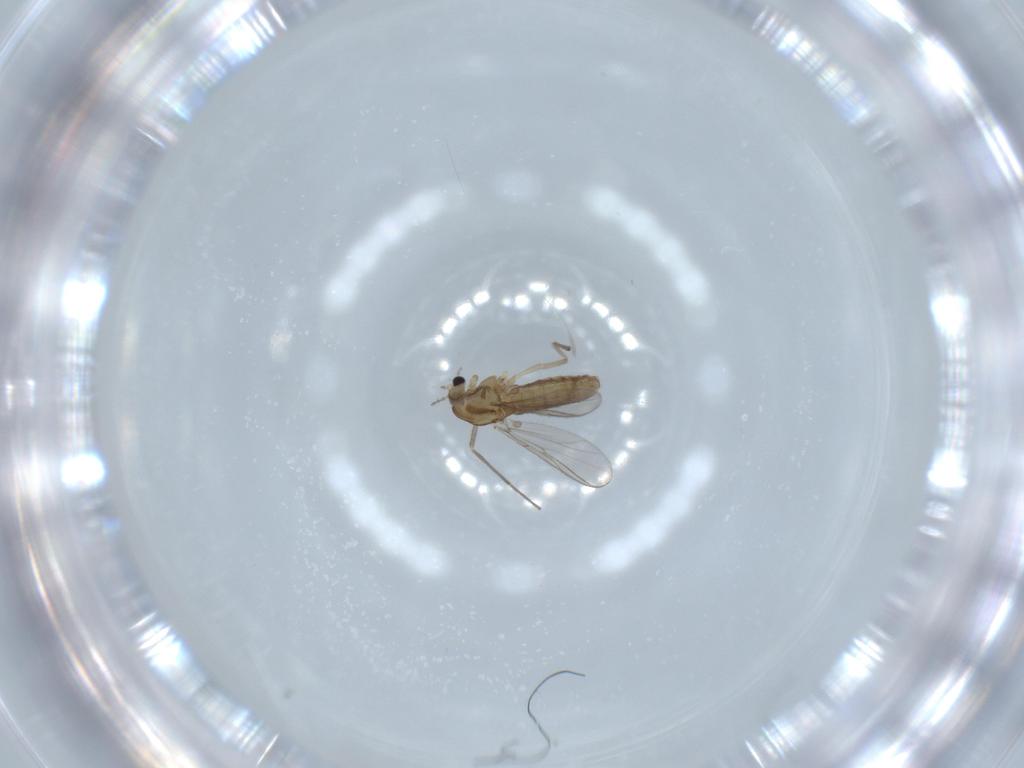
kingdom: Animalia
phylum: Arthropoda
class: Insecta
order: Diptera
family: Chironomidae
